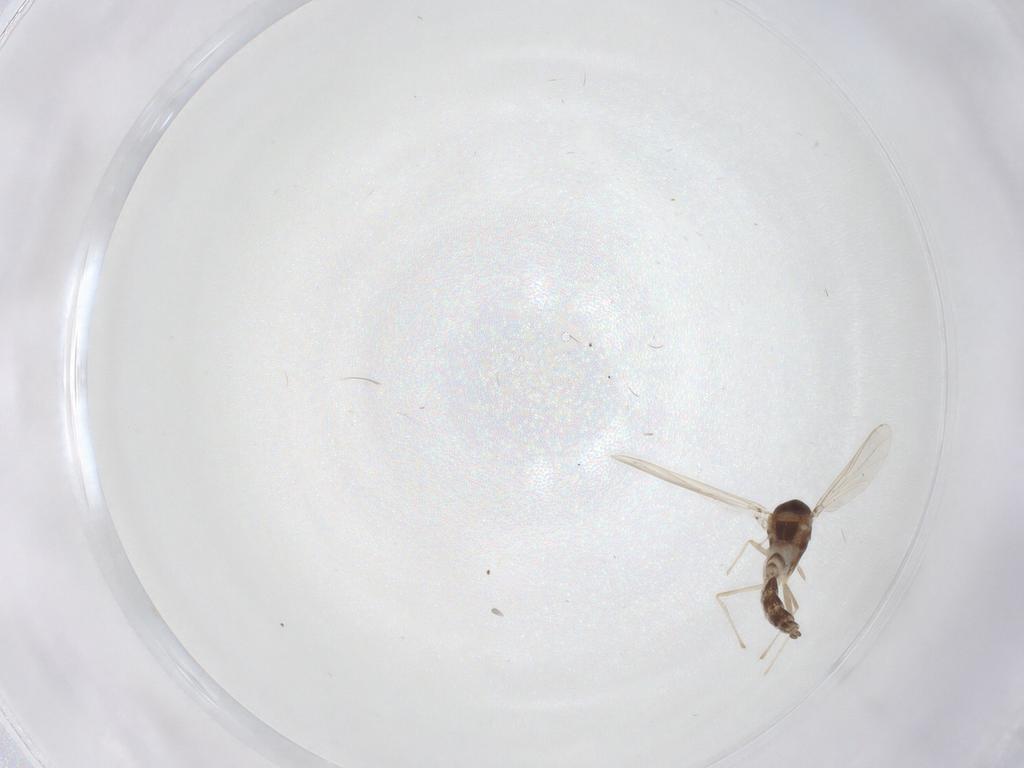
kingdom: Animalia
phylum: Arthropoda
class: Insecta
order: Diptera
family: Chironomidae
